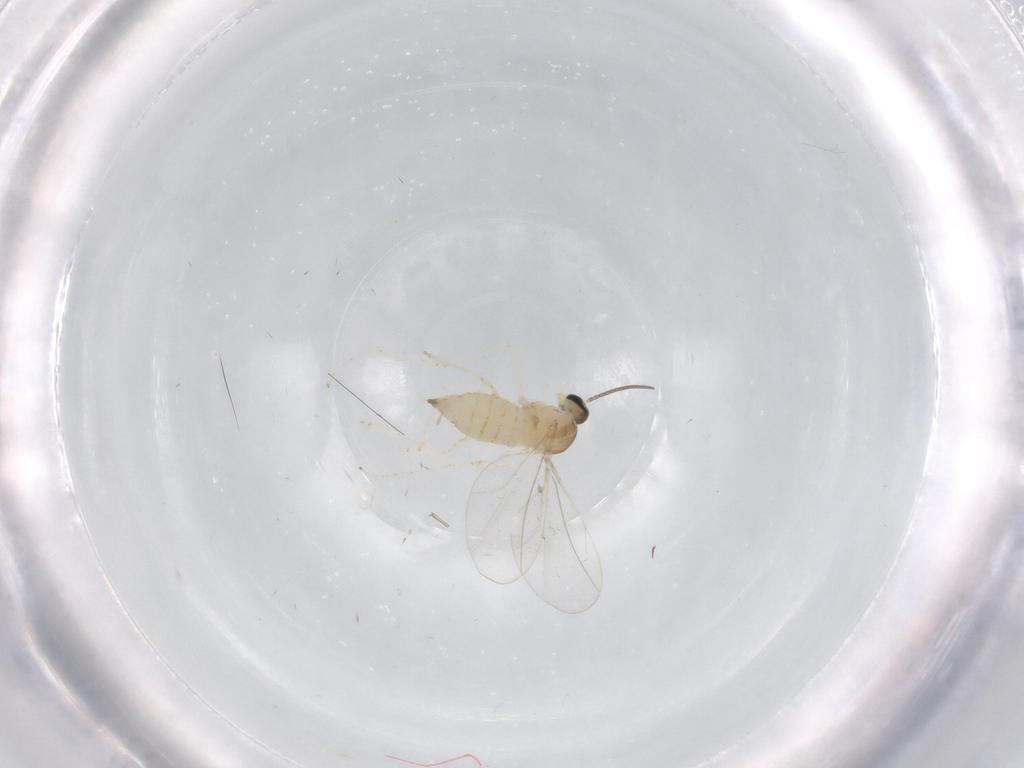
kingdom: Animalia
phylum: Arthropoda
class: Insecta
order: Diptera
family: Cecidomyiidae
